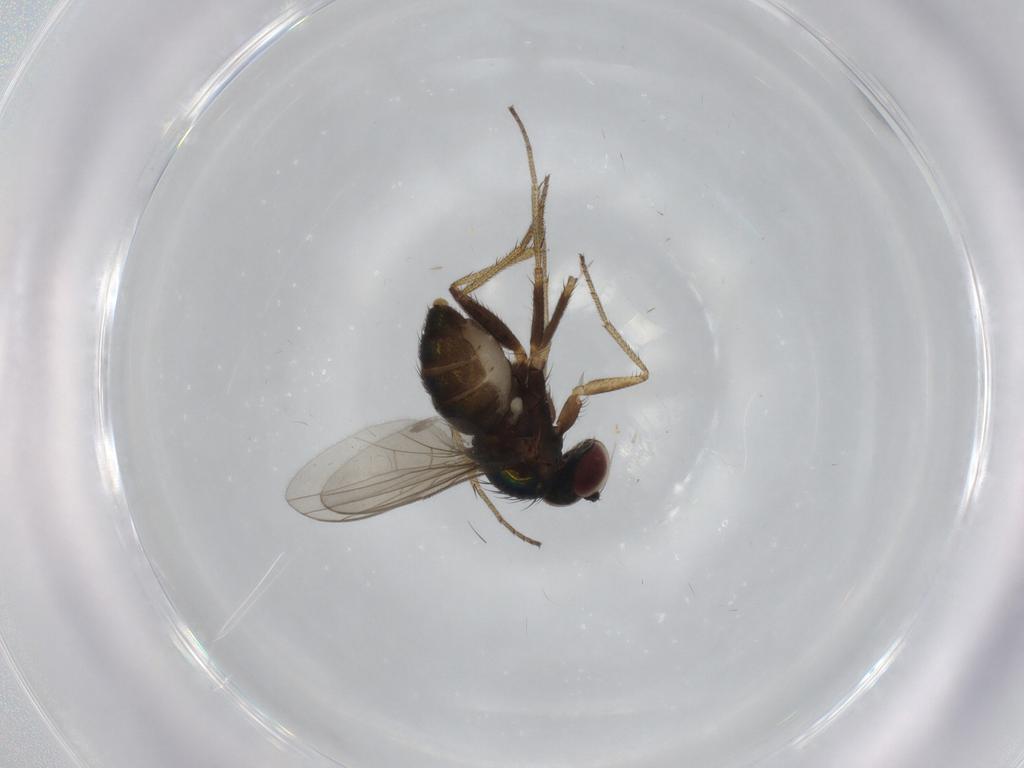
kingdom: Animalia
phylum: Arthropoda
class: Insecta
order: Diptera
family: Dolichopodidae
